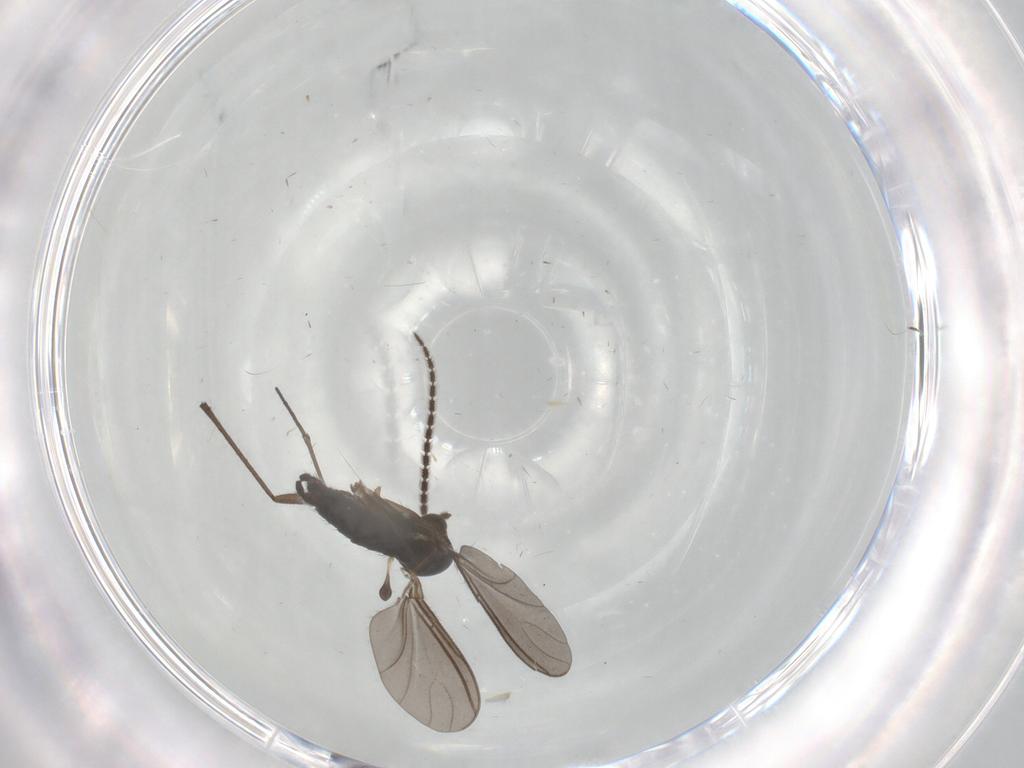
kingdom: Animalia
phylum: Arthropoda
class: Insecta
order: Diptera
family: Sciaridae
